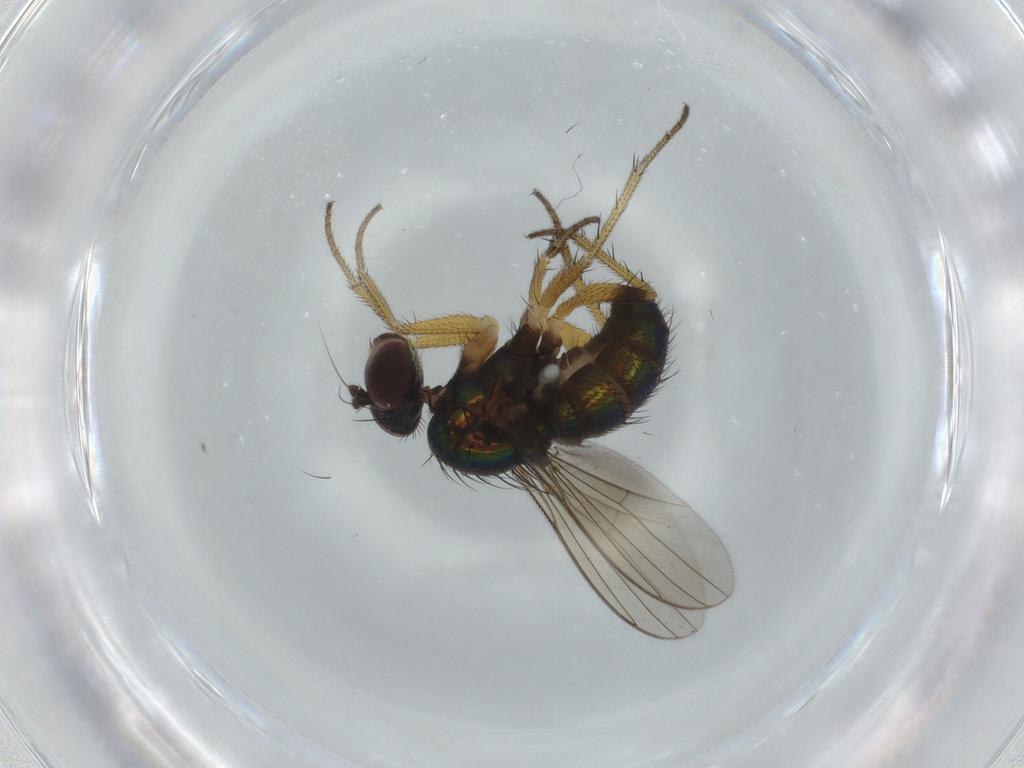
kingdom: Animalia
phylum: Arthropoda
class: Insecta
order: Diptera
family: Dolichopodidae
